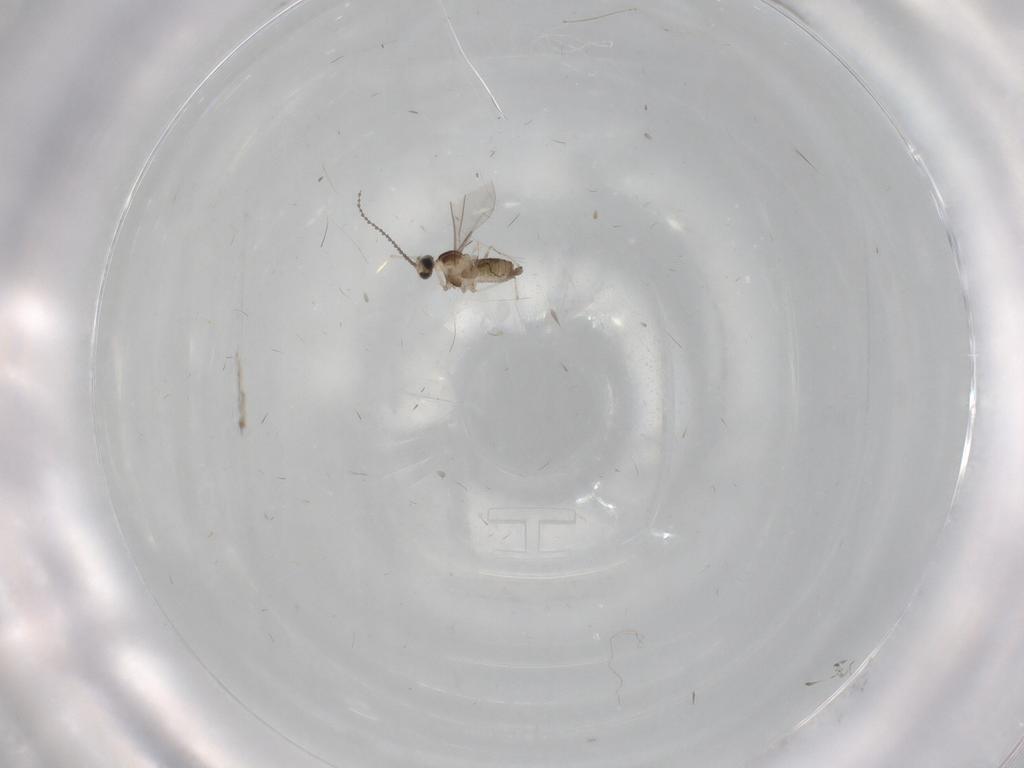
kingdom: Animalia
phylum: Arthropoda
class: Insecta
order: Diptera
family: Cecidomyiidae
